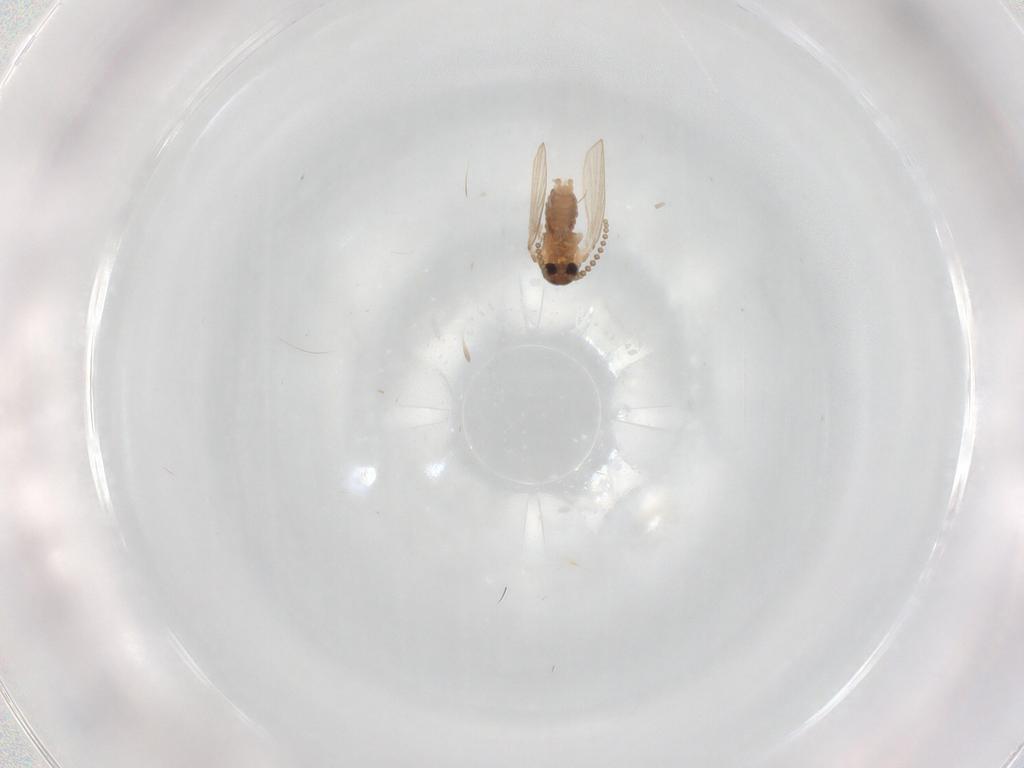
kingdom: Animalia
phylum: Arthropoda
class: Insecta
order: Diptera
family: Psychodidae
